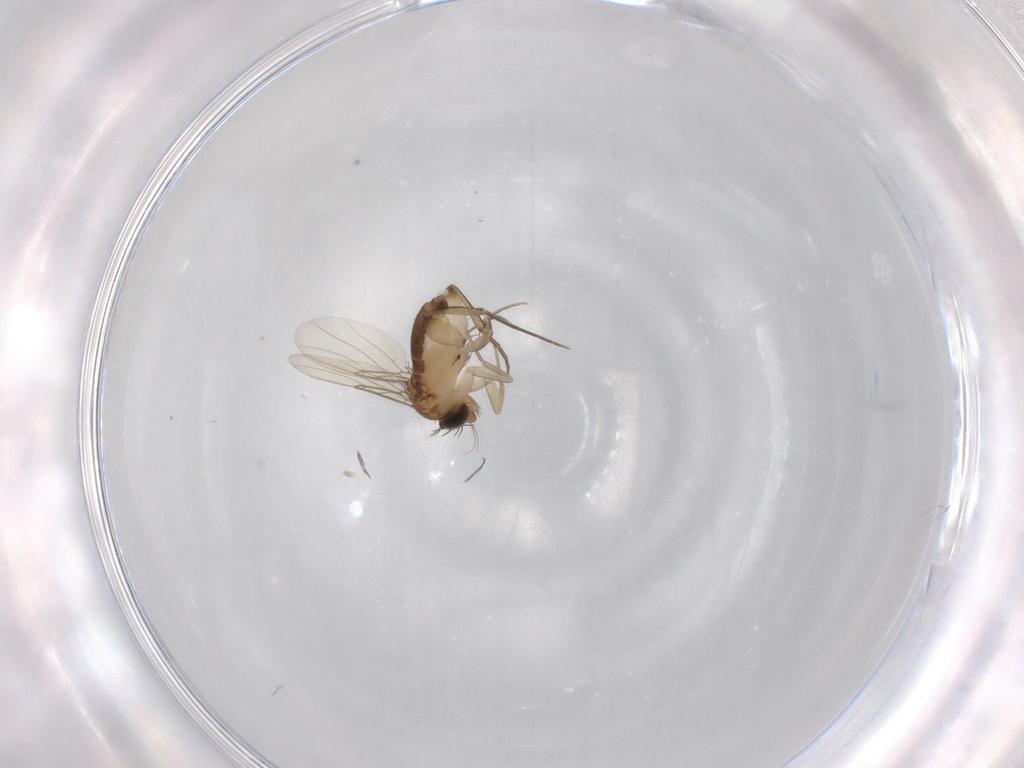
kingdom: Animalia
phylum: Arthropoda
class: Insecta
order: Diptera
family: Phoridae
